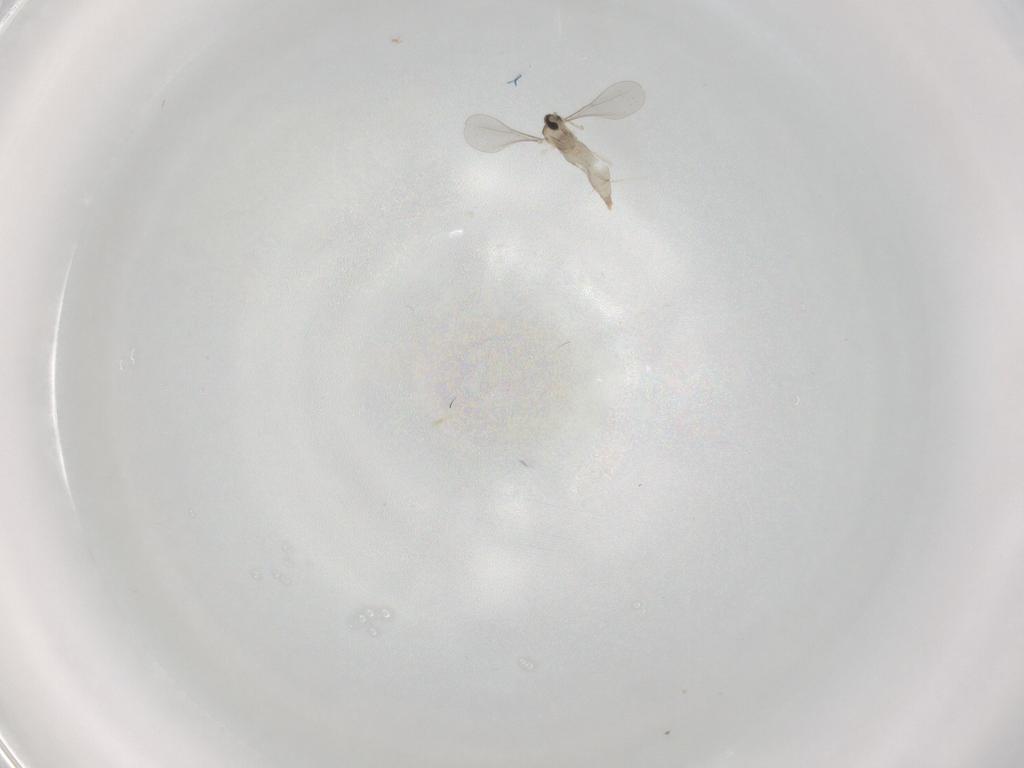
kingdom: Animalia
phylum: Arthropoda
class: Insecta
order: Diptera
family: Cecidomyiidae
